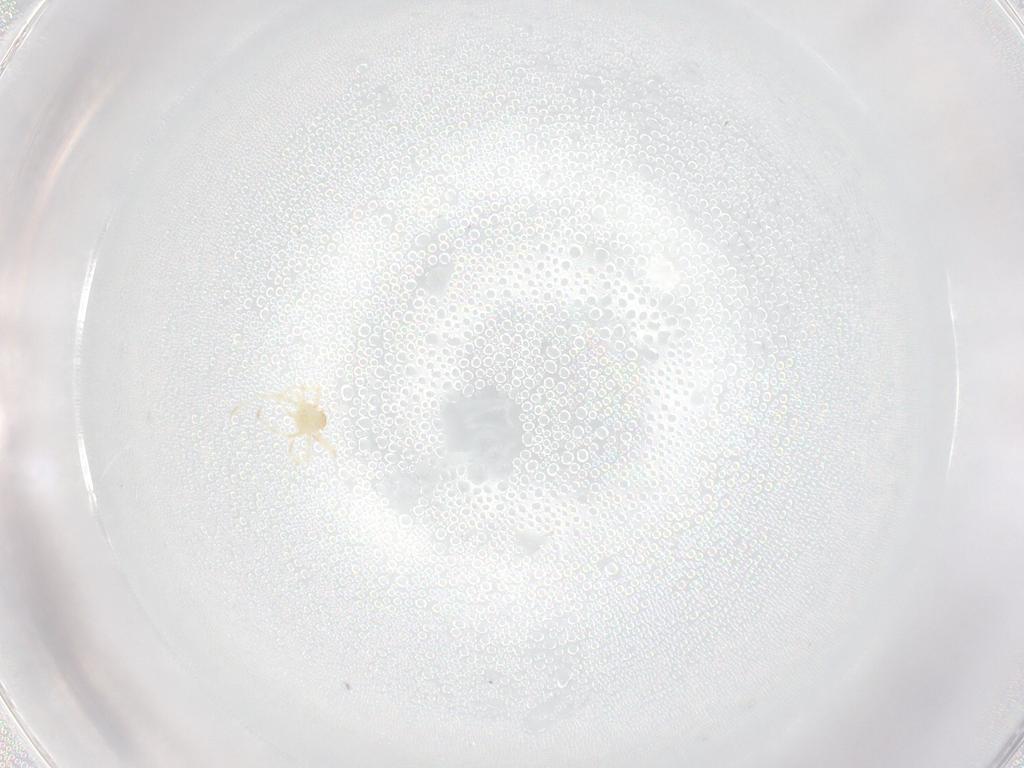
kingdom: Animalia
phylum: Arthropoda
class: Arachnida
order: Trombidiformes
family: Erythraeidae
